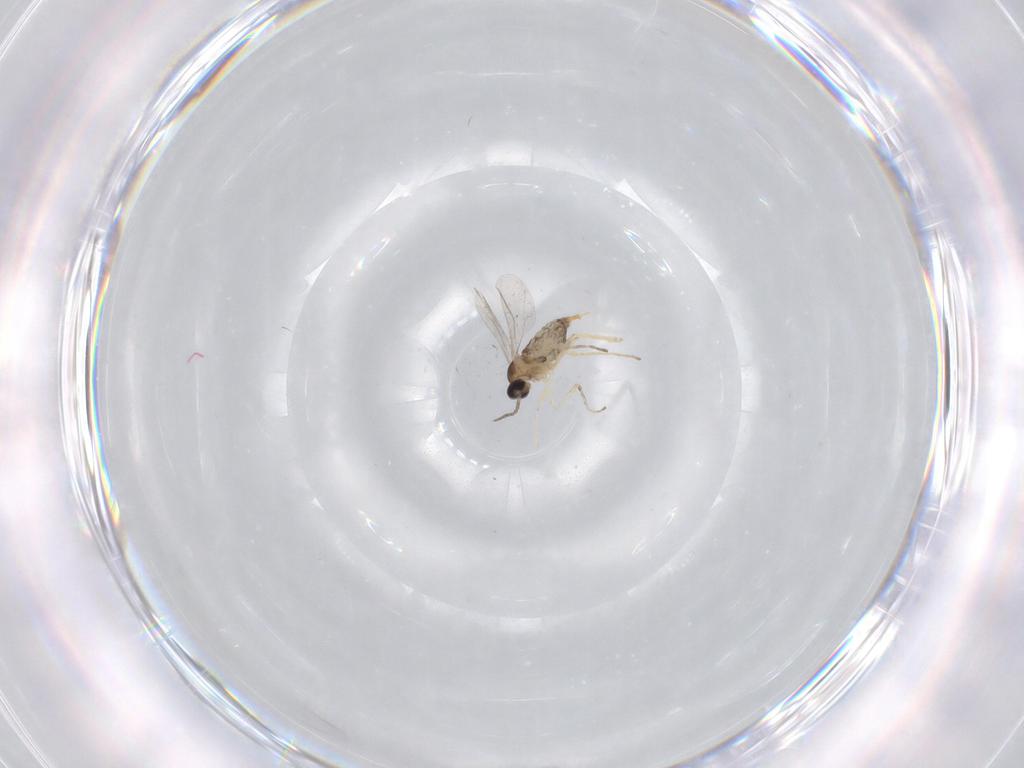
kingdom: Animalia
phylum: Arthropoda
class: Insecta
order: Diptera
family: Cecidomyiidae
